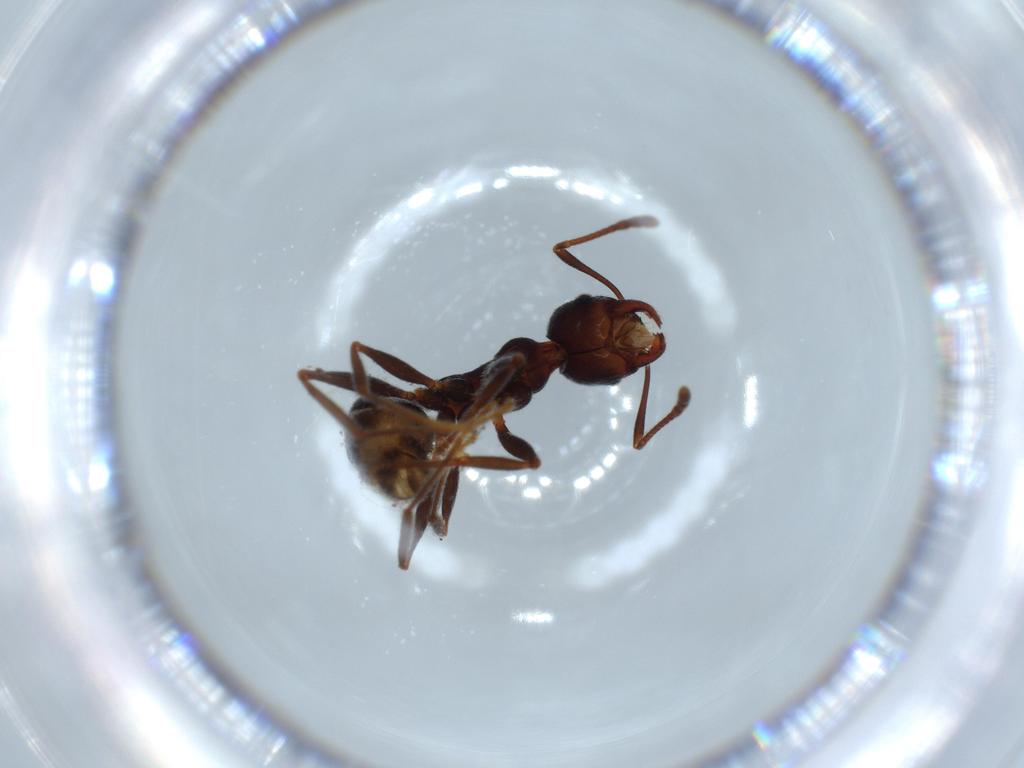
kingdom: Animalia
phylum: Arthropoda
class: Insecta
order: Hymenoptera
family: Formicidae
